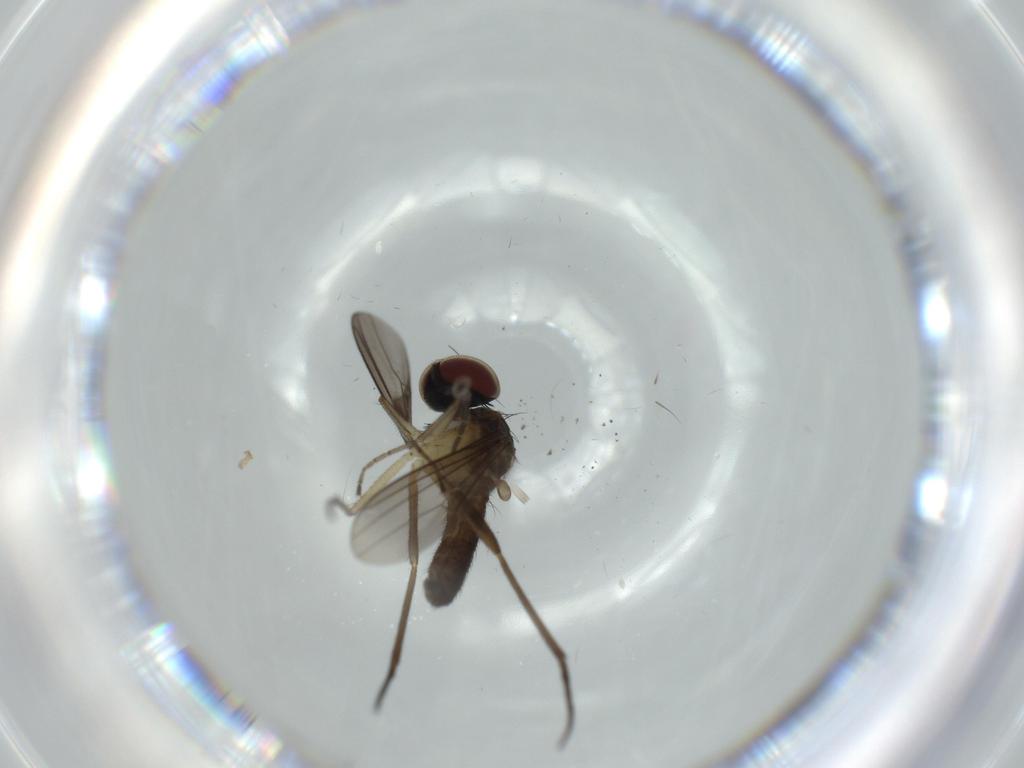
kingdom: Animalia
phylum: Arthropoda
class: Insecta
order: Diptera
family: Dolichopodidae
